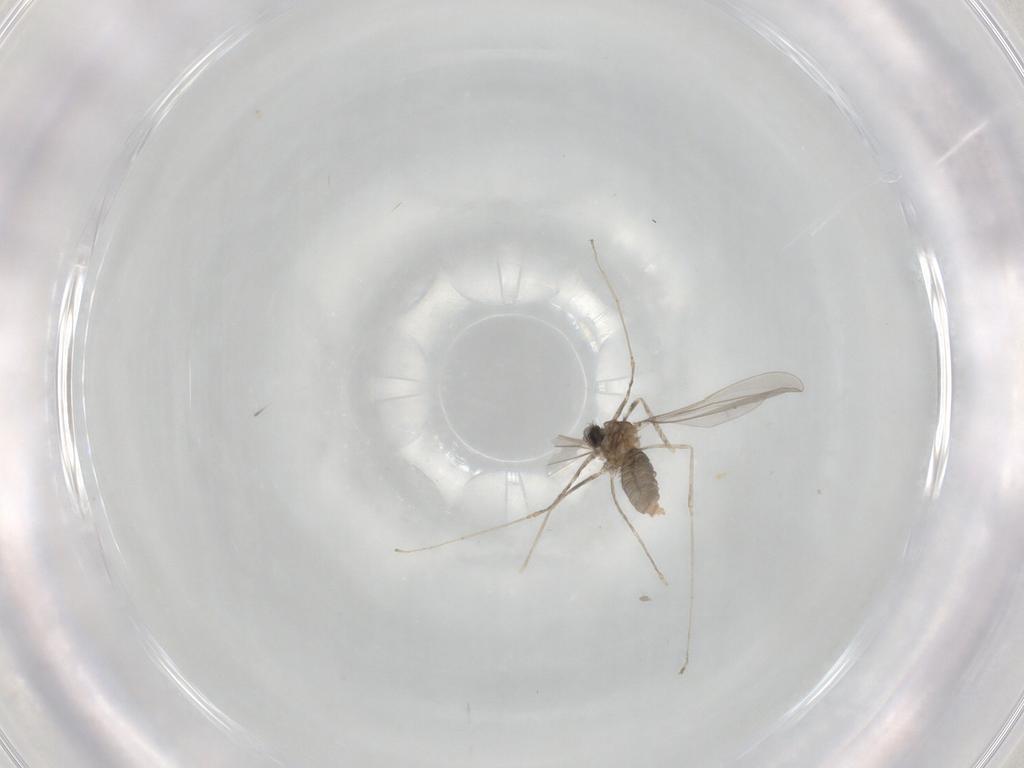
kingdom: Animalia
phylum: Arthropoda
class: Insecta
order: Diptera
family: Cecidomyiidae
